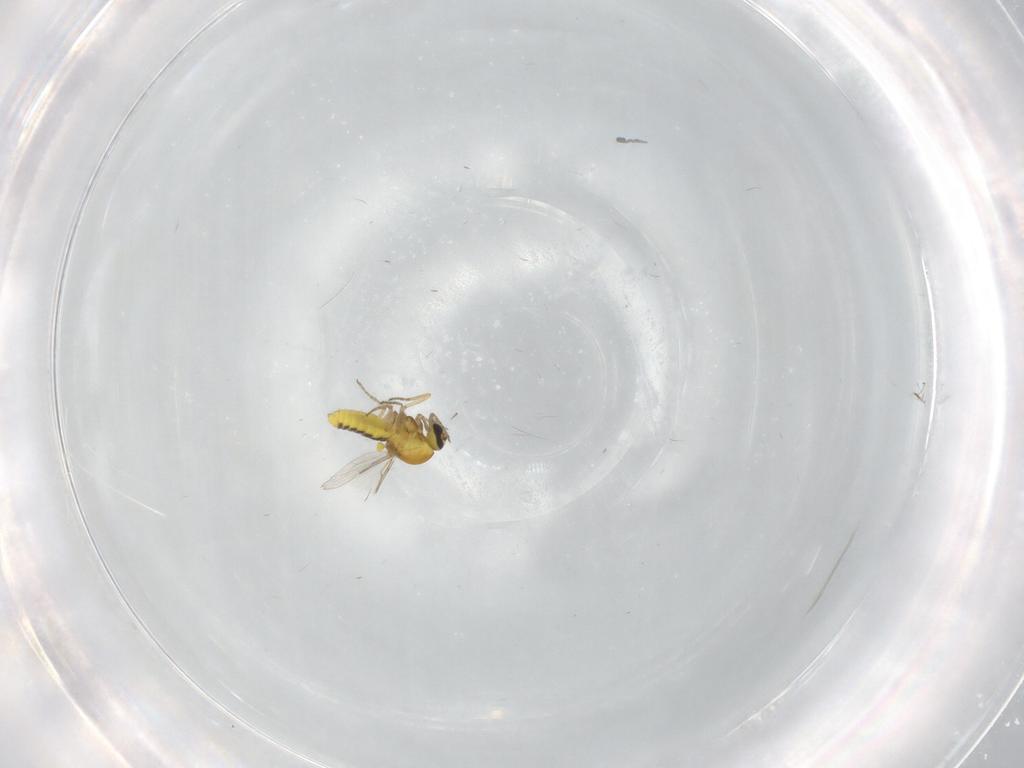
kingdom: Animalia
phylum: Arthropoda
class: Insecta
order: Diptera
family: Ceratopogonidae
